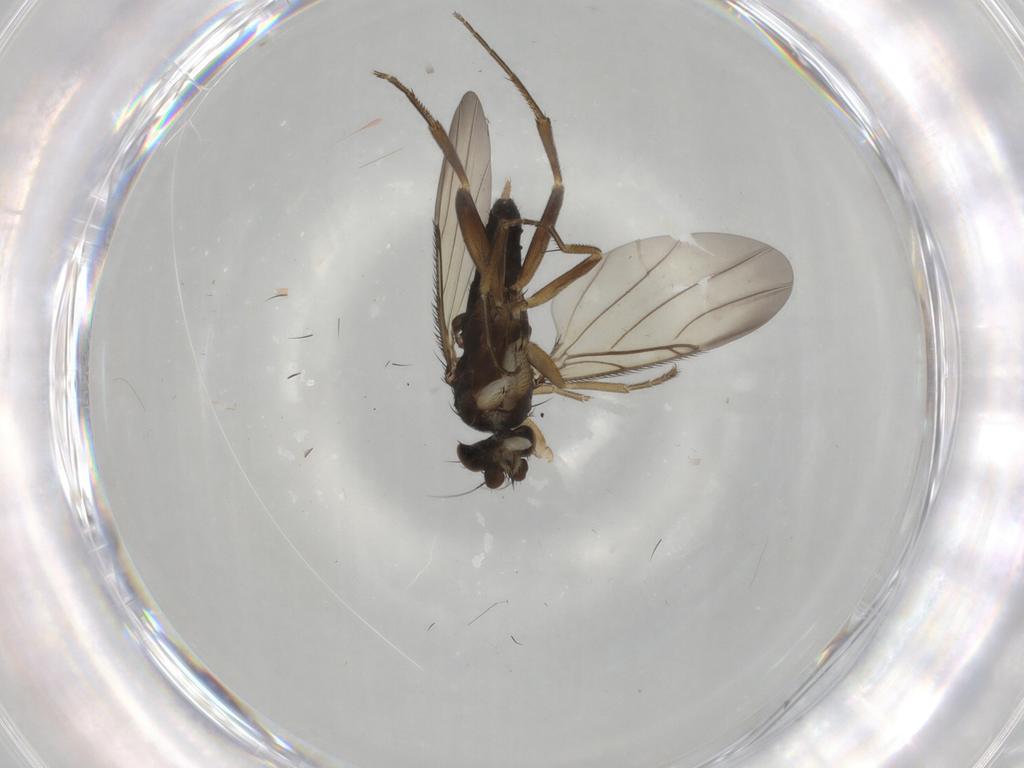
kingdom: Animalia
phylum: Arthropoda
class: Insecta
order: Diptera
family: Phoridae
